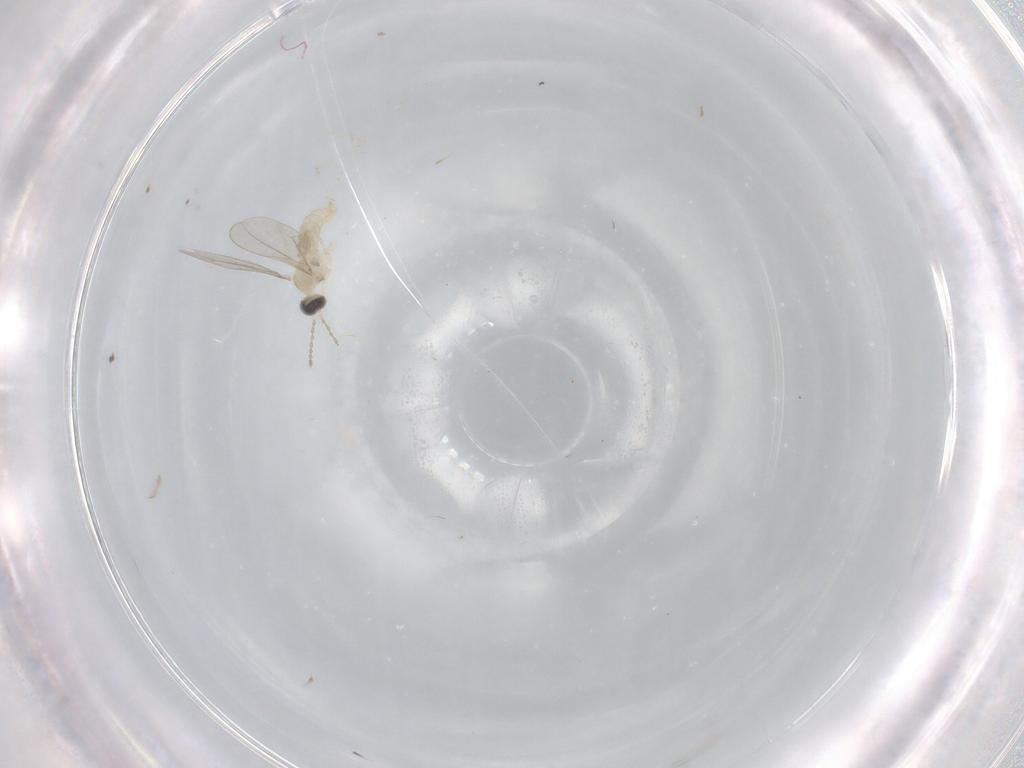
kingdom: Animalia
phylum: Arthropoda
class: Insecta
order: Diptera
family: Cecidomyiidae
